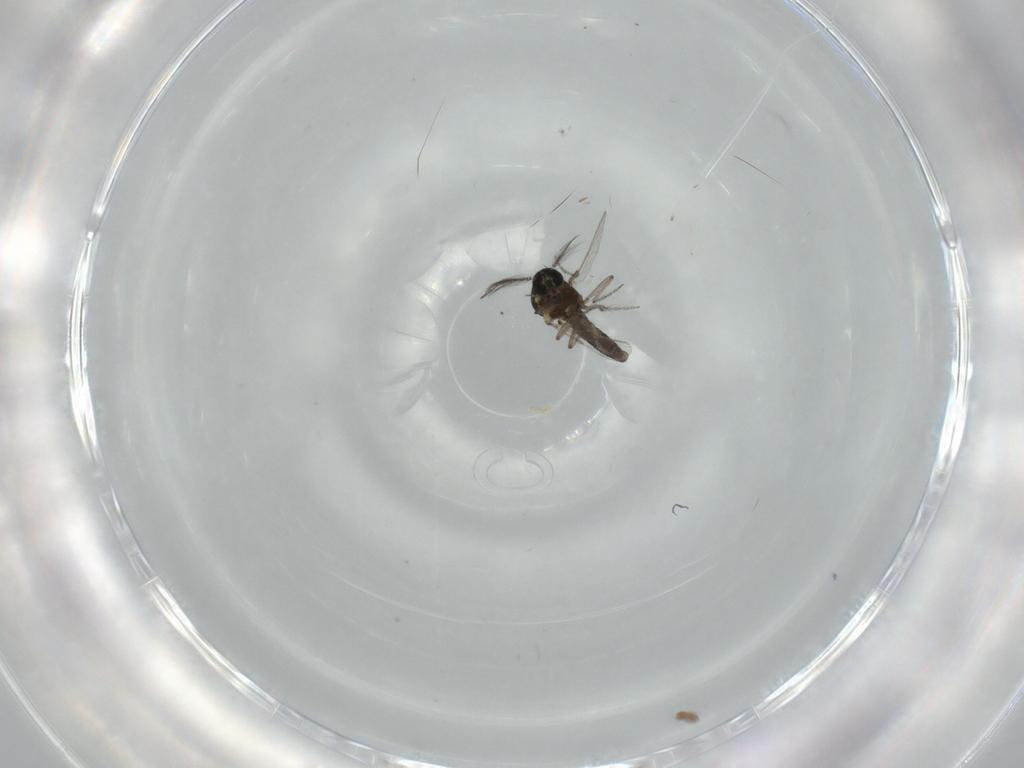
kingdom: Animalia
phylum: Arthropoda
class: Insecta
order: Diptera
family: Ceratopogonidae
